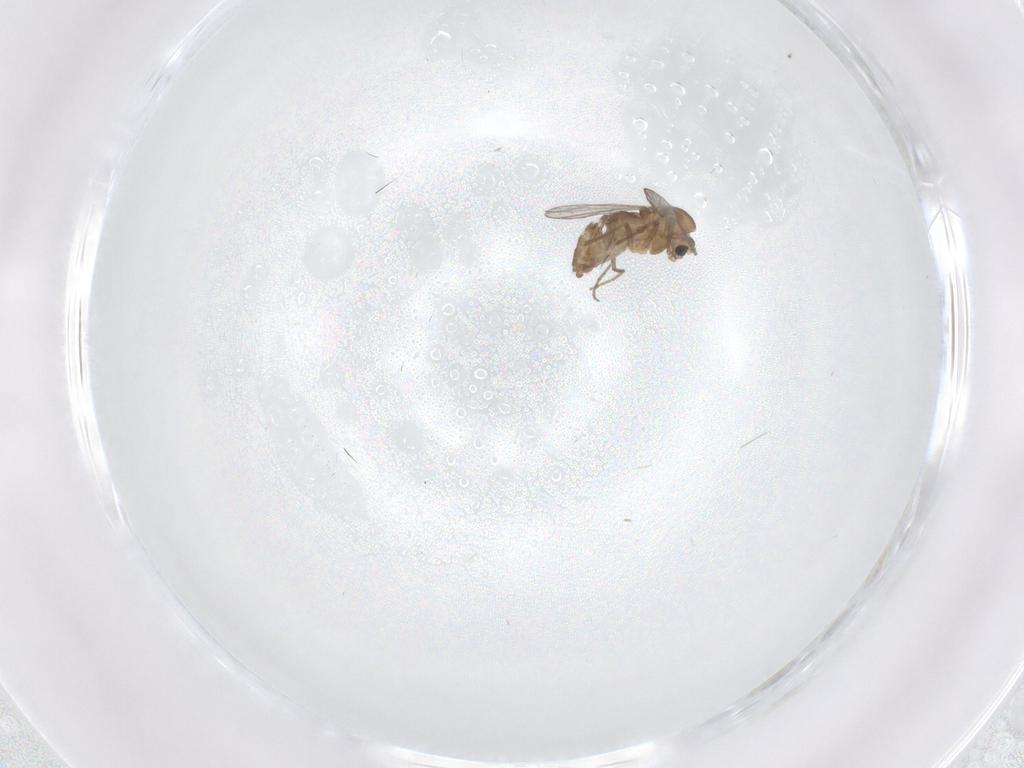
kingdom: Animalia
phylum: Arthropoda
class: Insecta
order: Diptera
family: Chironomidae
